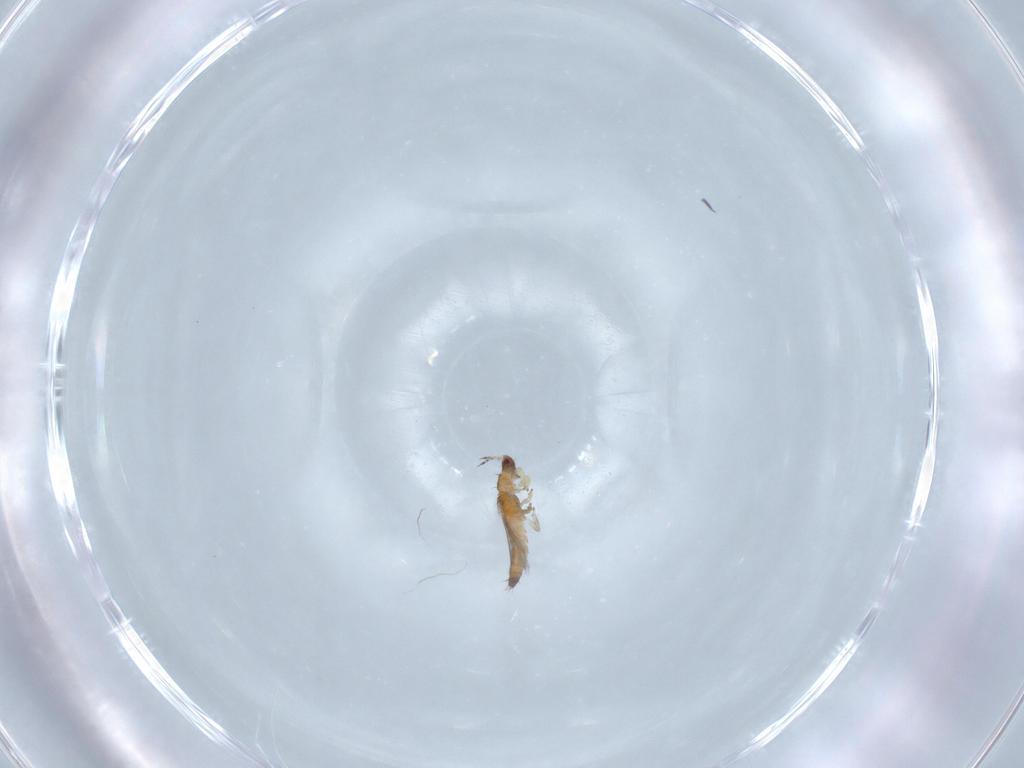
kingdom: Animalia
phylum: Arthropoda
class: Insecta
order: Thysanoptera
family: Thripidae
